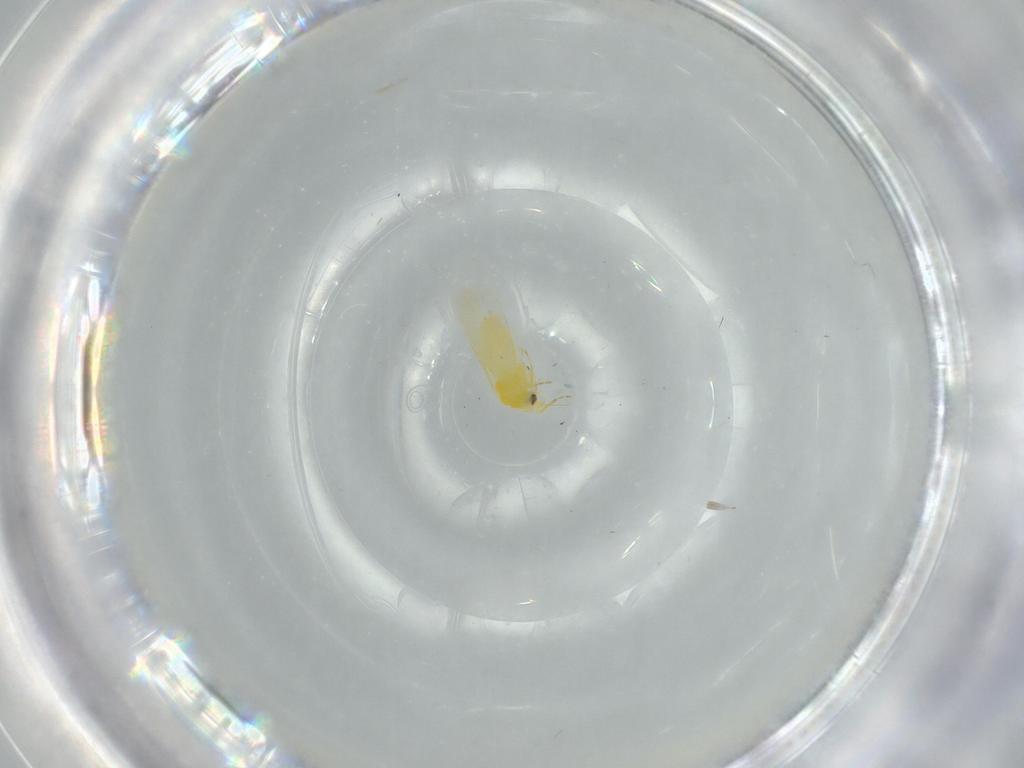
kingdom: Animalia
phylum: Arthropoda
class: Insecta
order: Hemiptera
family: Aleyrodidae
